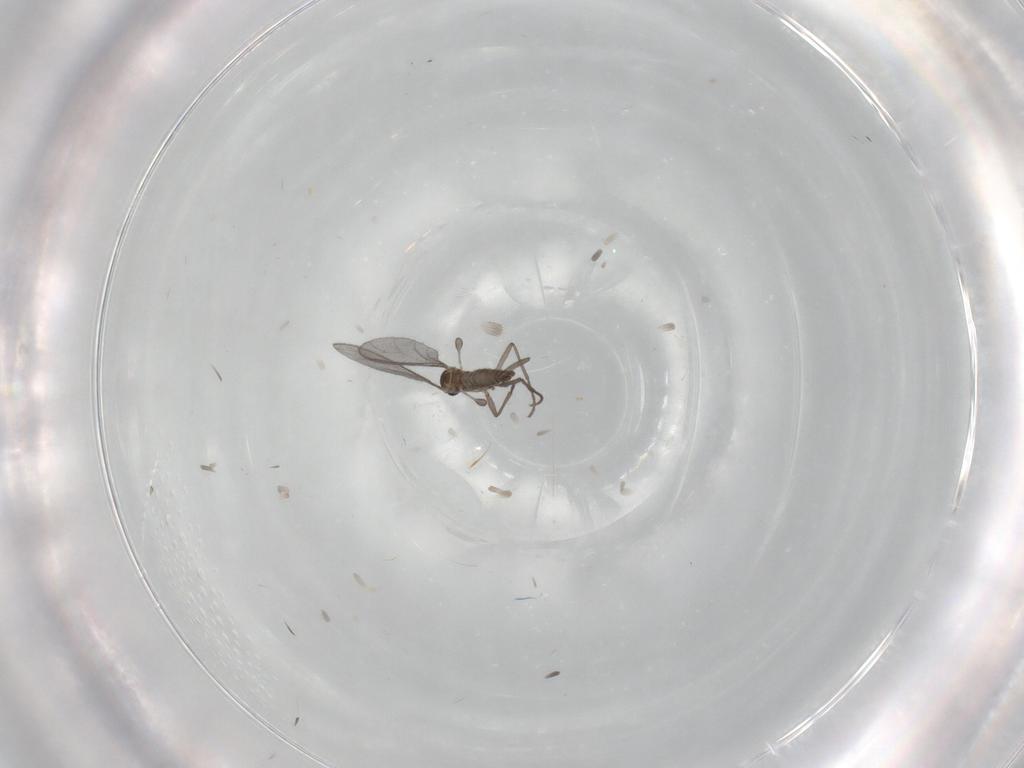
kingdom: Animalia
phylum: Arthropoda
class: Insecta
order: Diptera
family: Sciaridae
